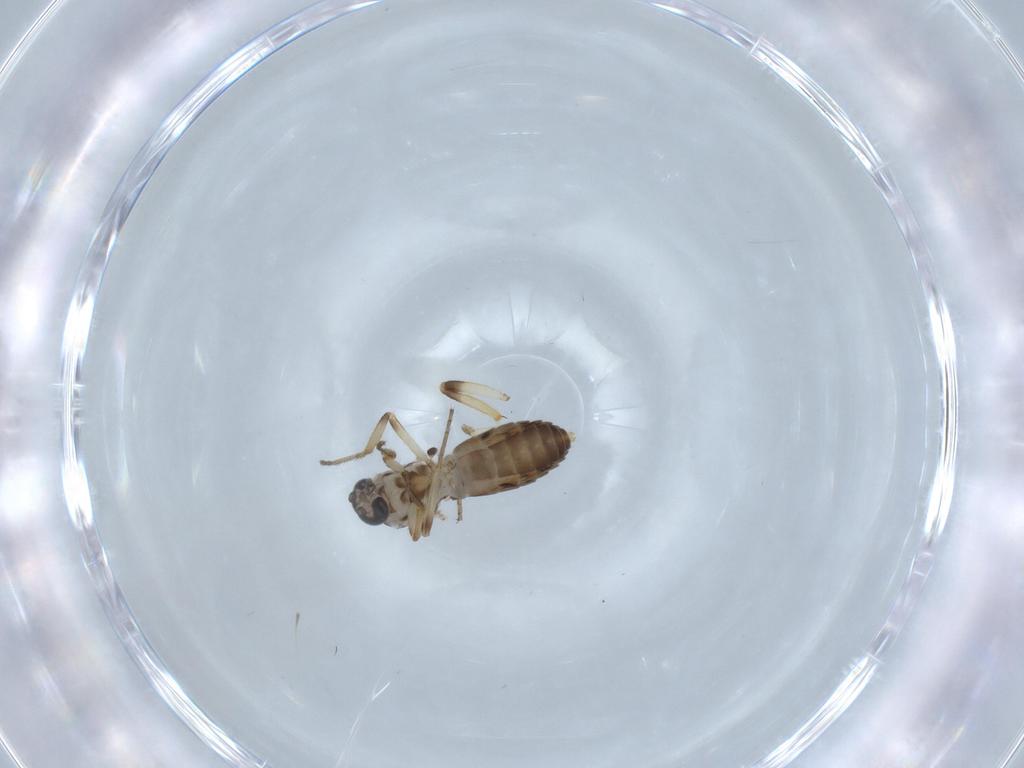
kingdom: Animalia
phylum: Arthropoda
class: Insecta
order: Diptera
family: Ceratopogonidae
